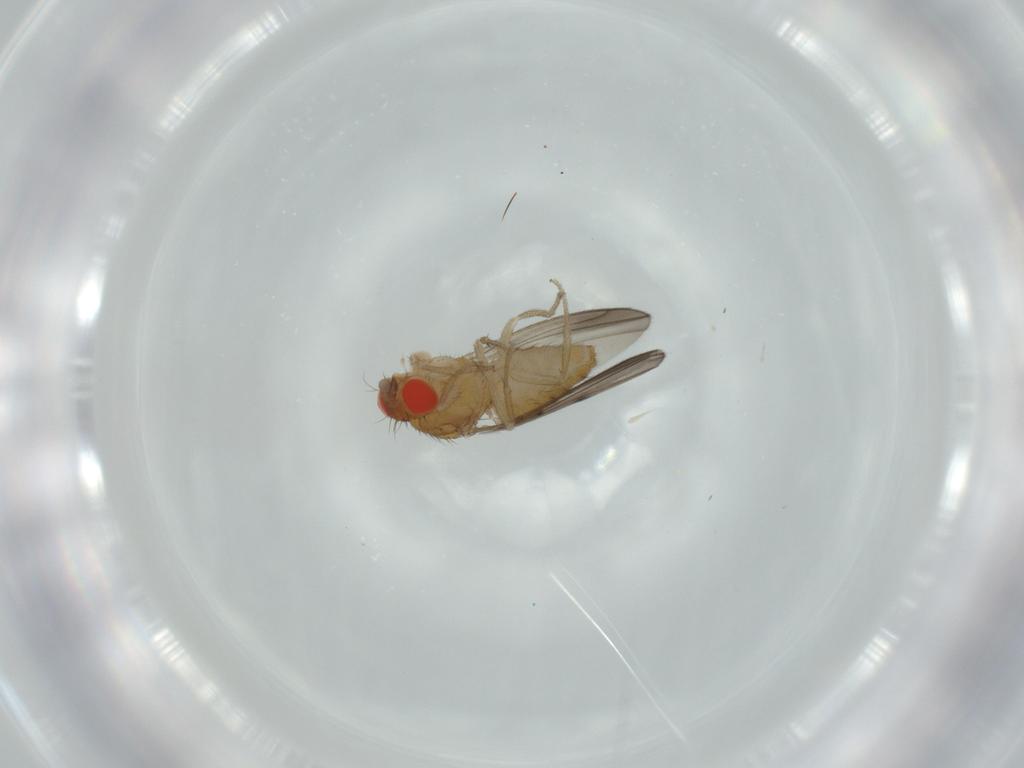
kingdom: Animalia
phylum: Arthropoda
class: Insecta
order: Diptera
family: Drosophilidae
